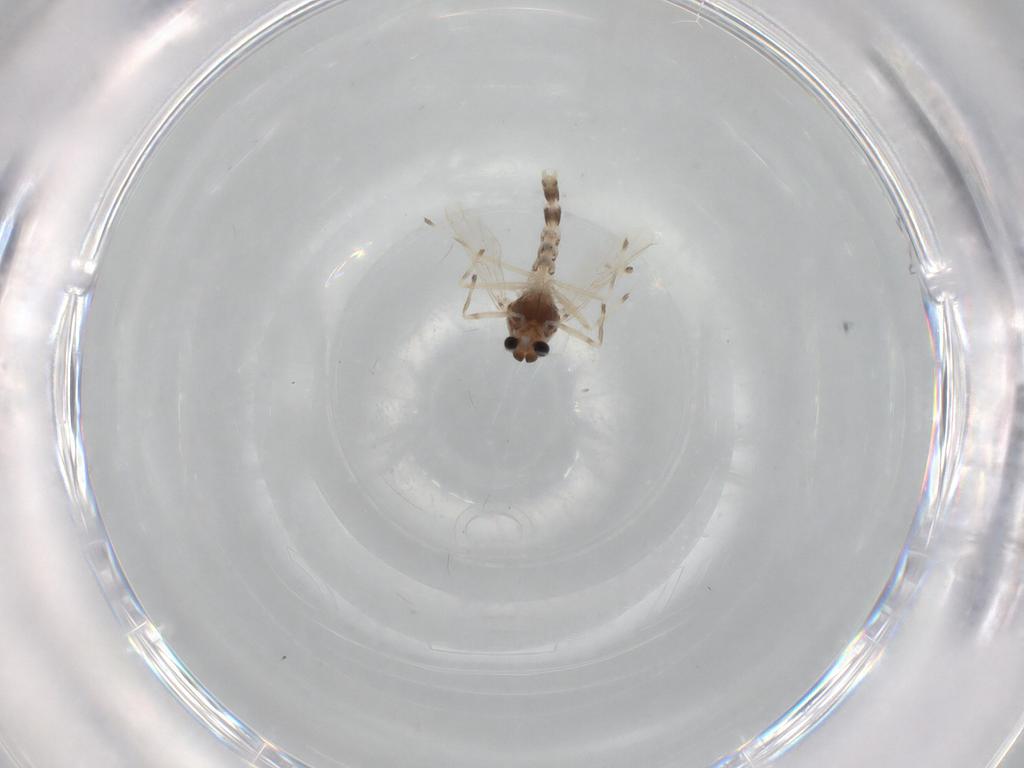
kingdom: Animalia
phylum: Arthropoda
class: Insecta
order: Diptera
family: Chironomidae
